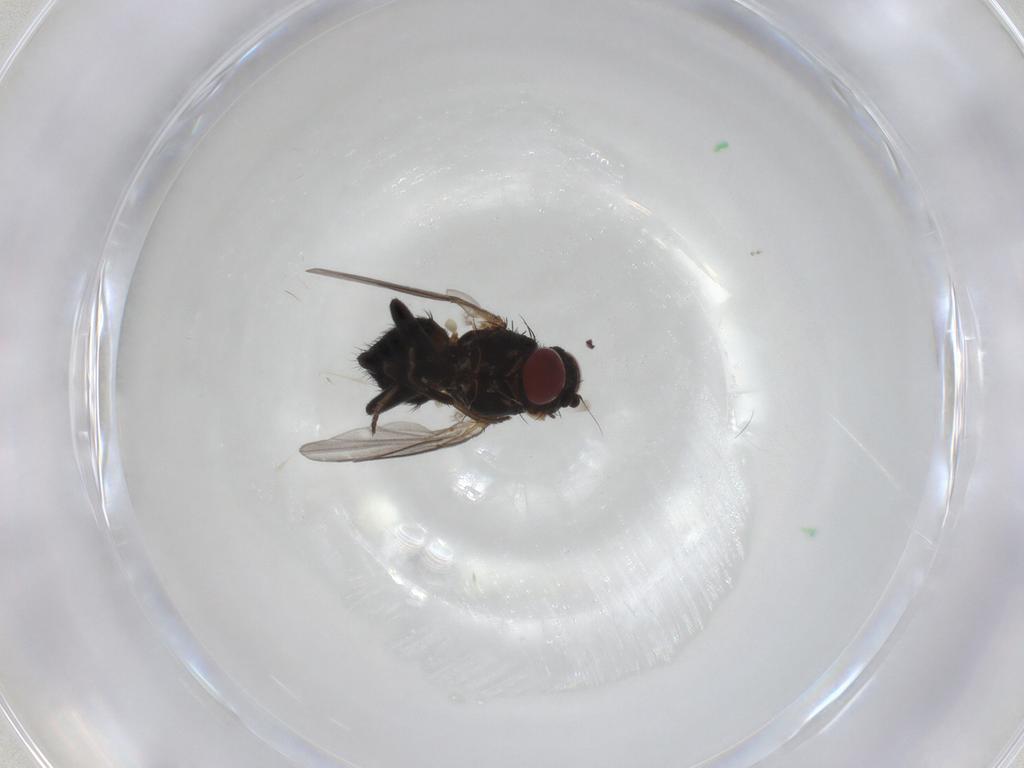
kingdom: Animalia
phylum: Arthropoda
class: Insecta
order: Diptera
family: Agromyzidae
